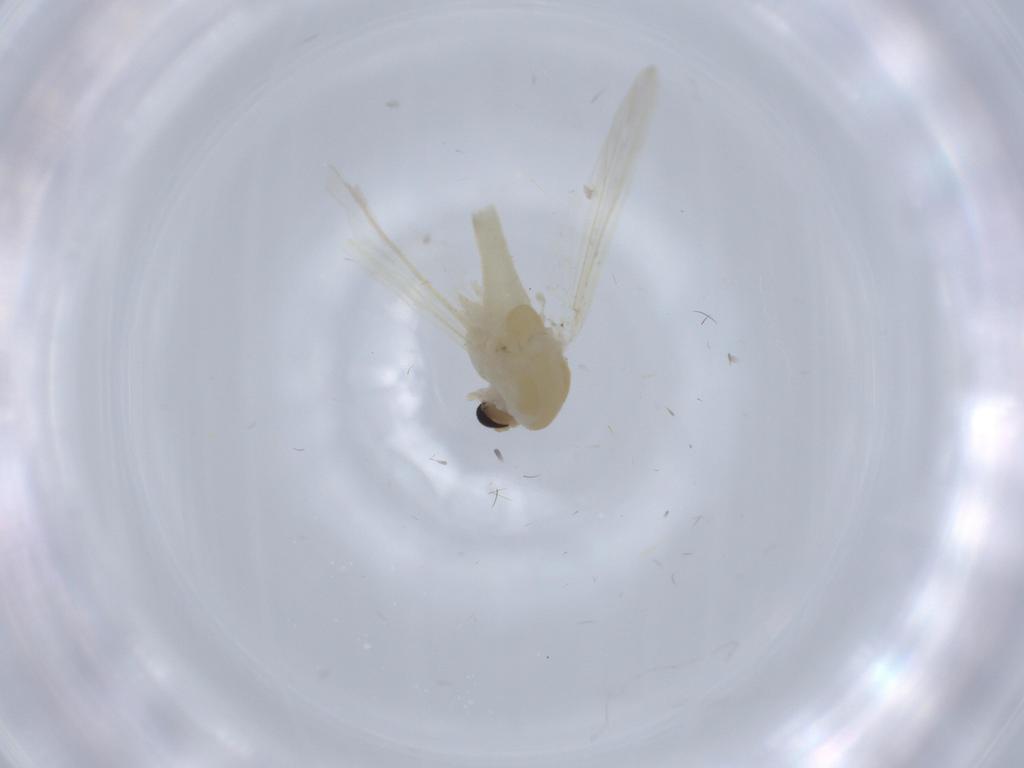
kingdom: Animalia
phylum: Arthropoda
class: Insecta
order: Diptera
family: Chironomidae
